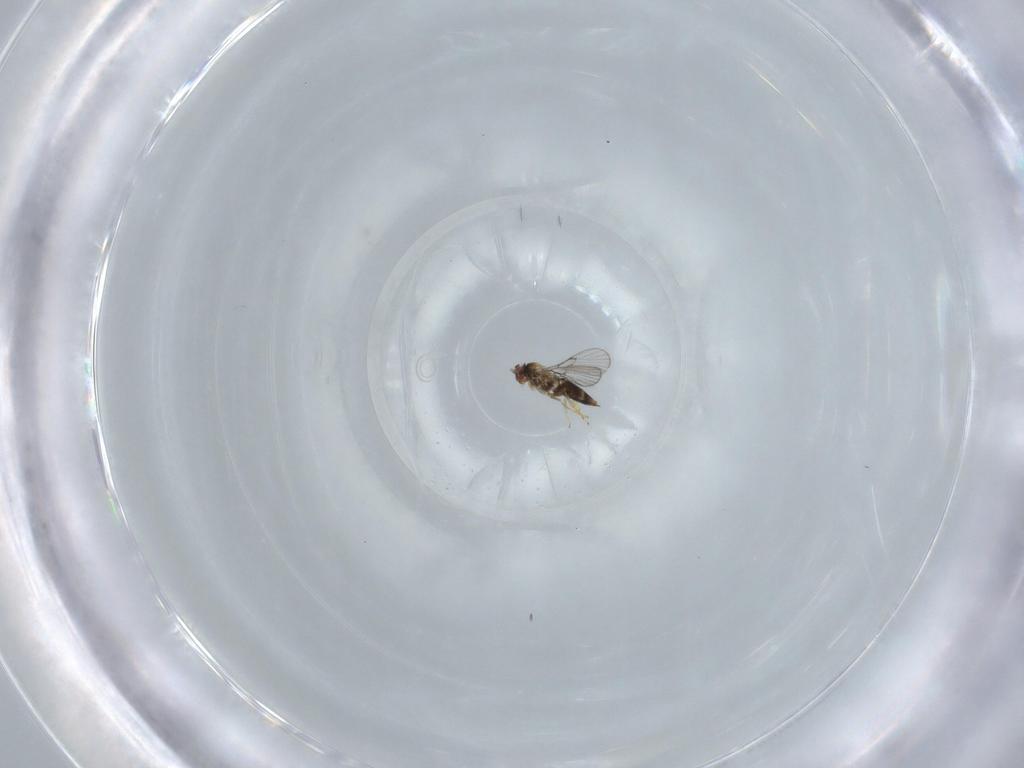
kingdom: Animalia
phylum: Arthropoda
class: Insecta
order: Hymenoptera
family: Trichogrammatidae
